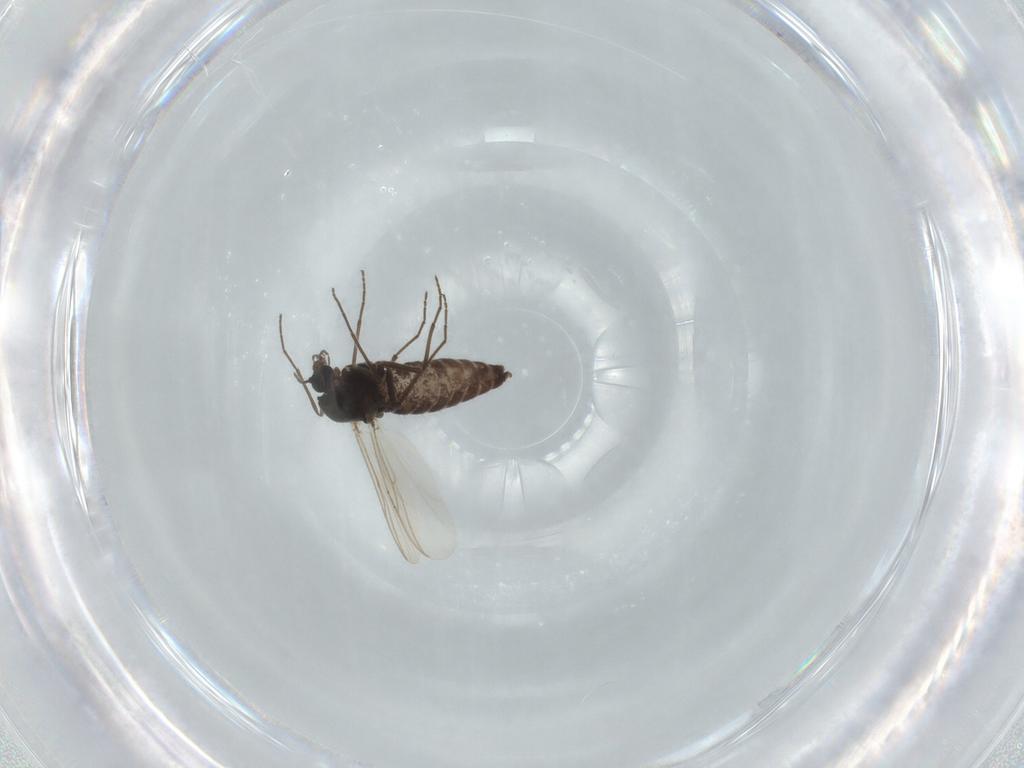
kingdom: Animalia
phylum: Arthropoda
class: Insecta
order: Diptera
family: Chironomidae
